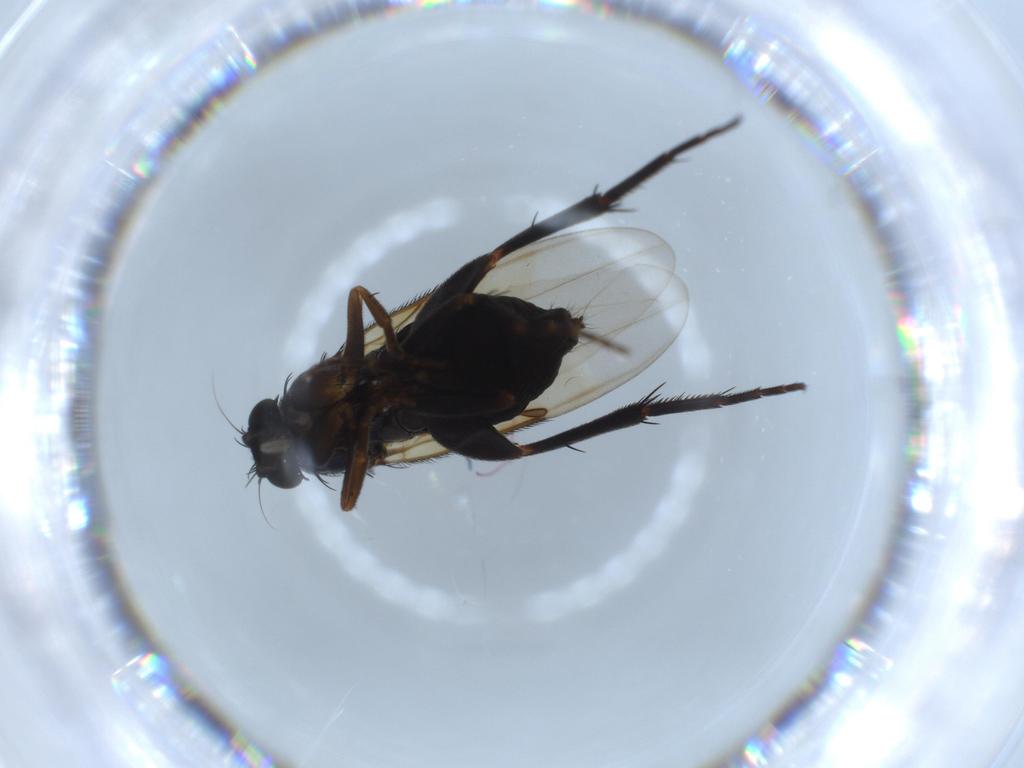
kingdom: Animalia
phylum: Arthropoda
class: Insecta
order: Diptera
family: Phoridae
